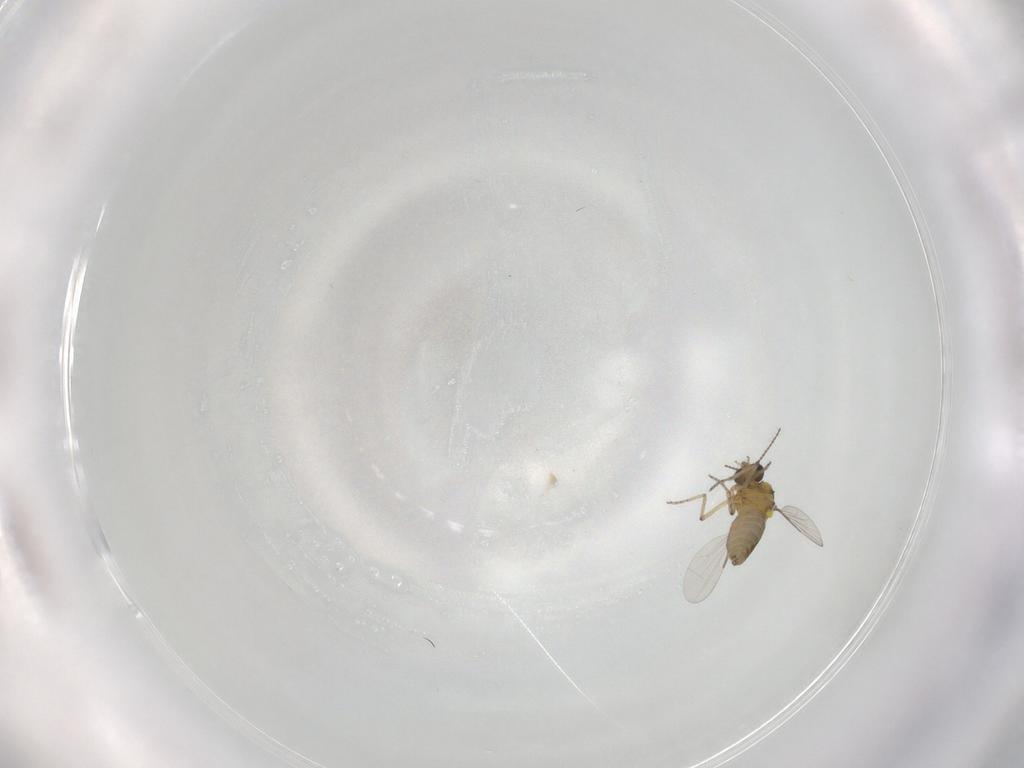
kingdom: Animalia
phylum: Arthropoda
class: Insecta
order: Diptera
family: Ceratopogonidae
